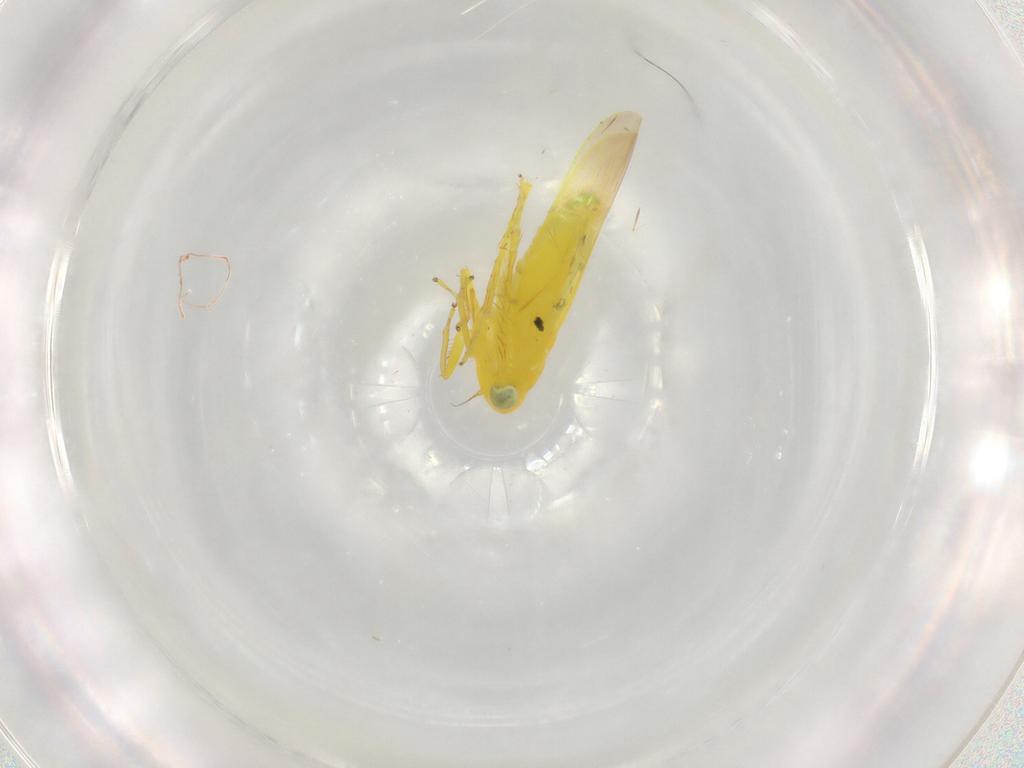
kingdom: Animalia
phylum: Arthropoda
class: Insecta
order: Hemiptera
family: Cicadellidae
